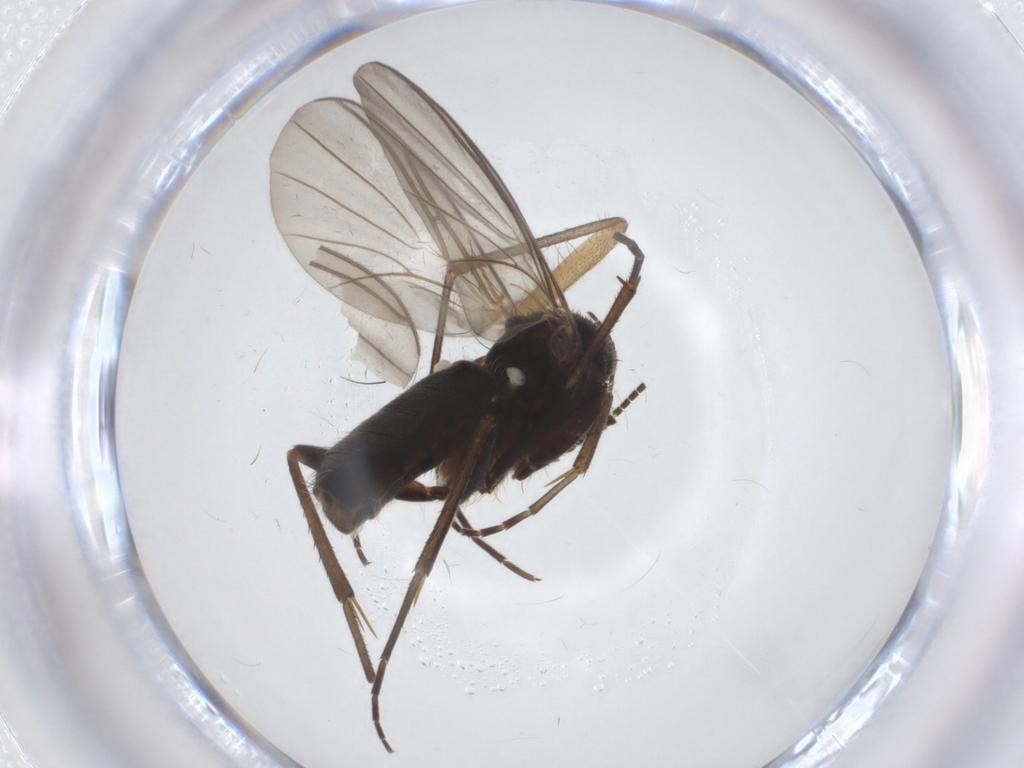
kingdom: Animalia
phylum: Arthropoda
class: Insecta
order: Diptera
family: Mycetophilidae
